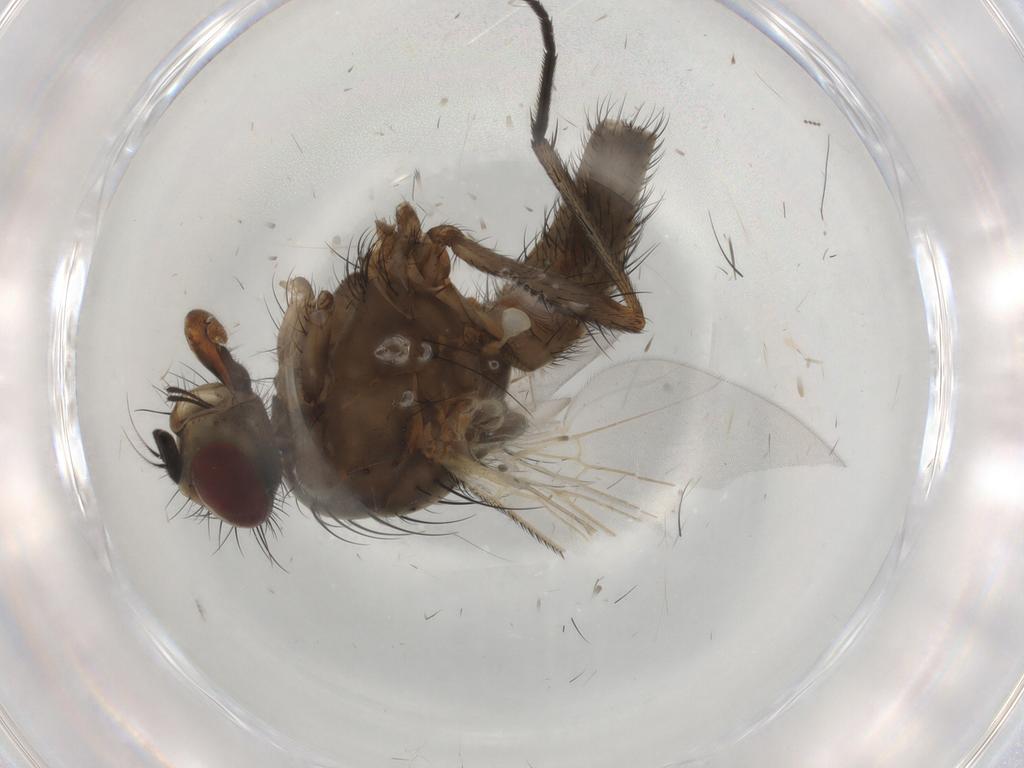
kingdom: Animalia
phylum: Arthropoda
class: Insecta
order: Diptera
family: Anthomyiidae
